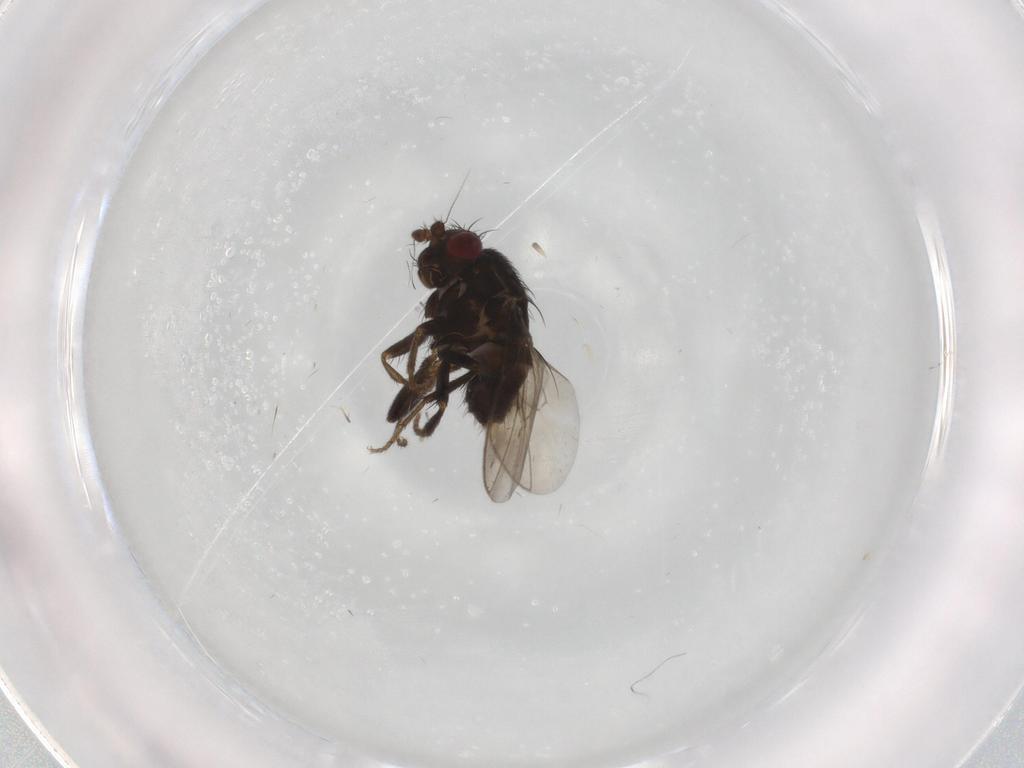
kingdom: Animalia
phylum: Arthropoda
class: Insecta
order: Diptera
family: Sphaeroceridae
